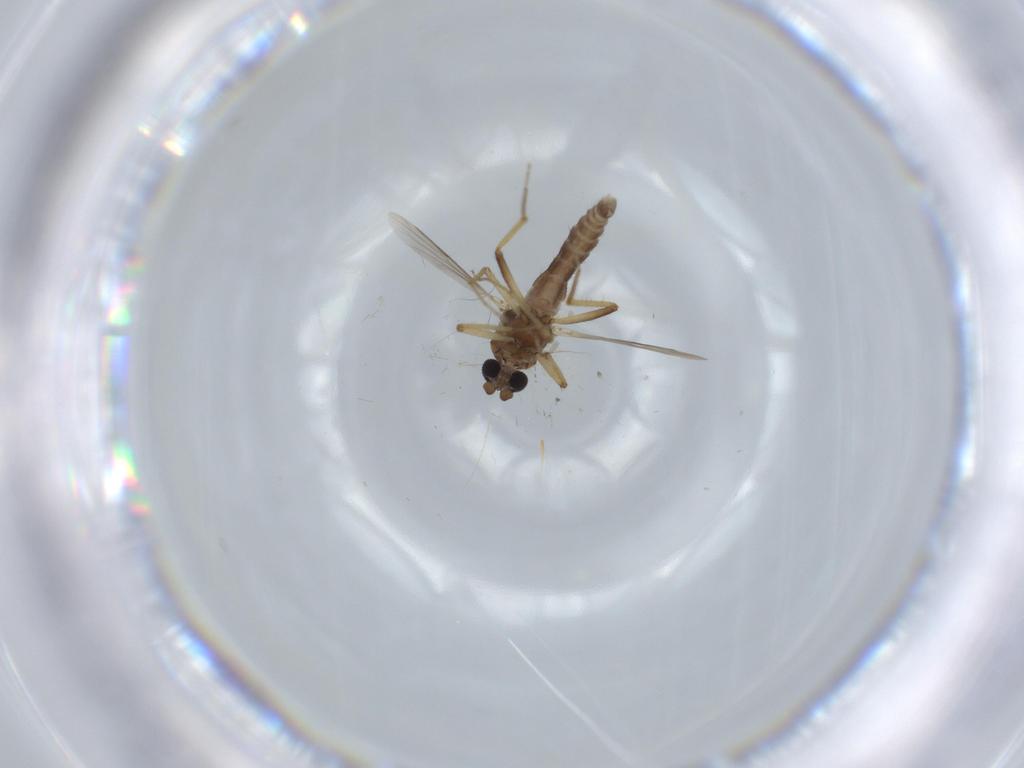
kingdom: Animalia
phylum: Arthropoda
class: Insecta
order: Diptera
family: Ceratopogonidae
